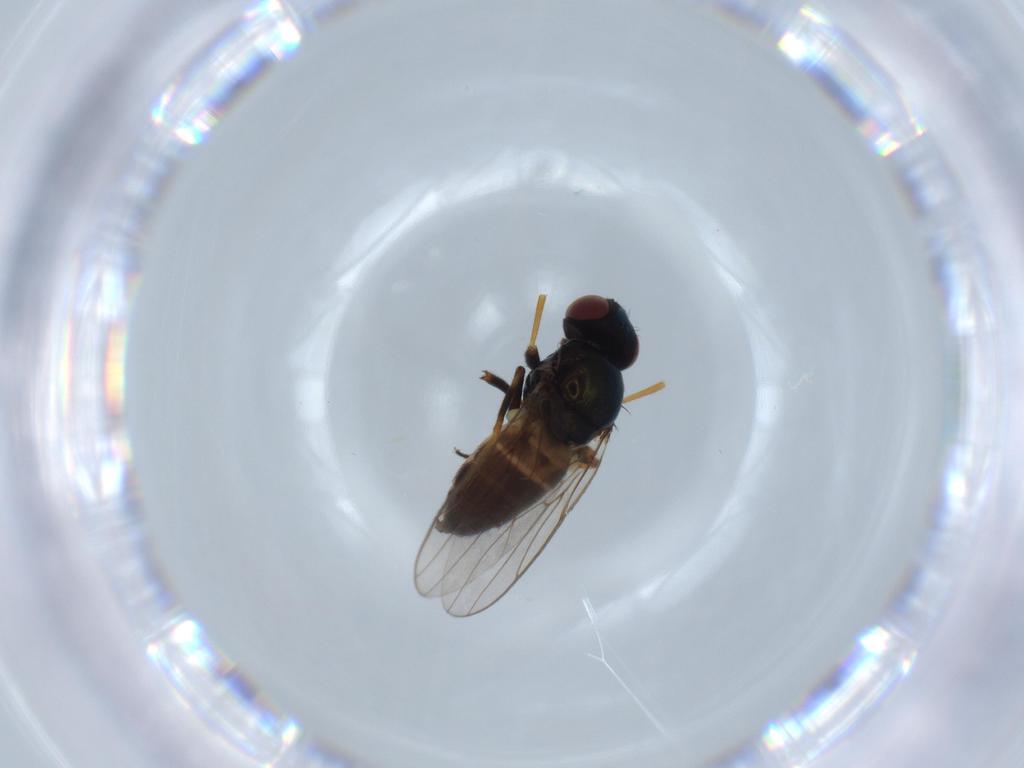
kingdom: Animalia
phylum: Arthropoda
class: Insecta
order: Diptera
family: Chloropidae
